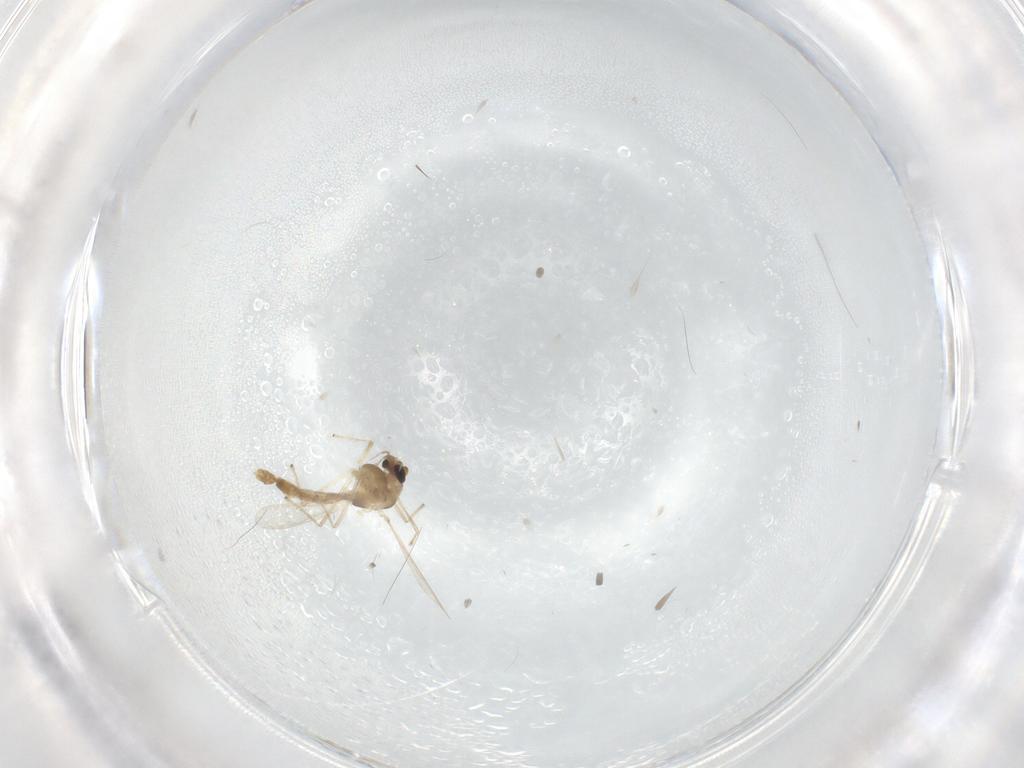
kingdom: Animalia
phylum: Arthropoda
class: Insecta
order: Diptera
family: Chironomidae
